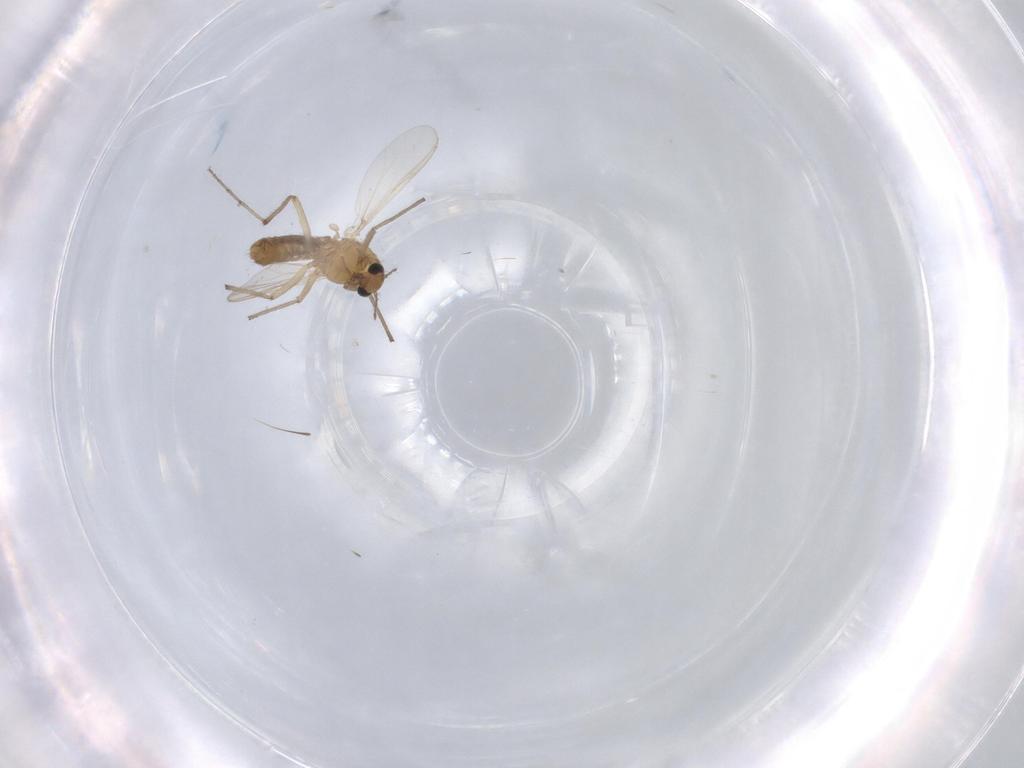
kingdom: Animalia
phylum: Arthropoda
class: Insecta
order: Diptera
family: Chironomidae
